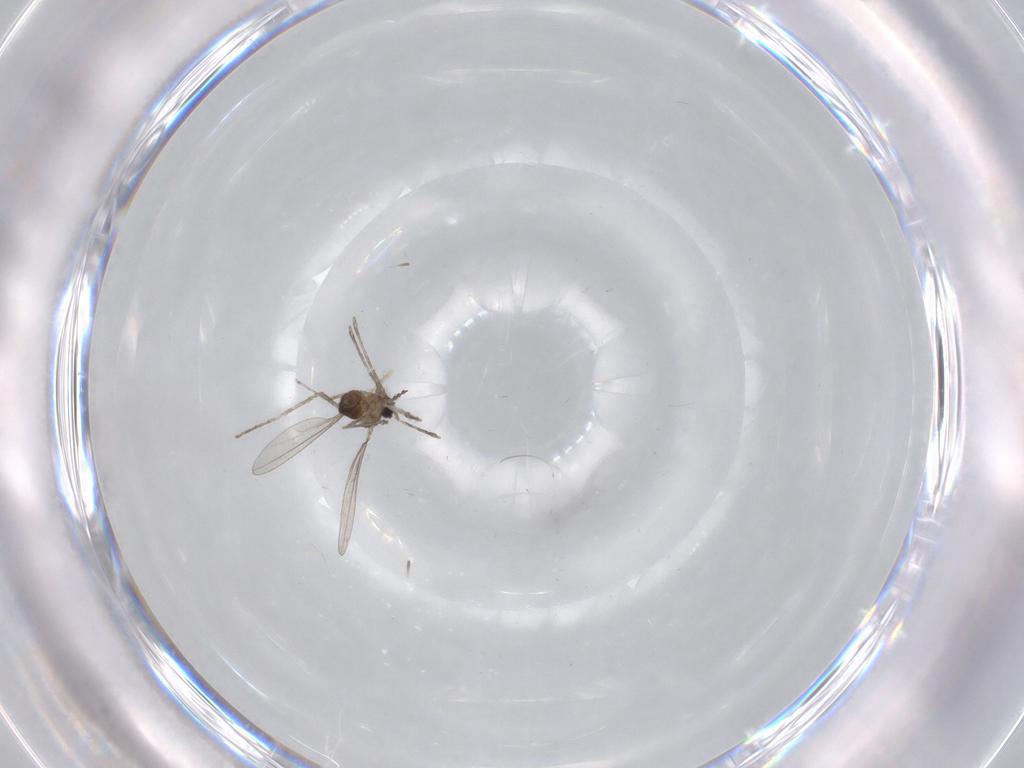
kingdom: Animalia
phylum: Arthropoda
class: Insecta
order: Diptera
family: Cecidomyiidae
